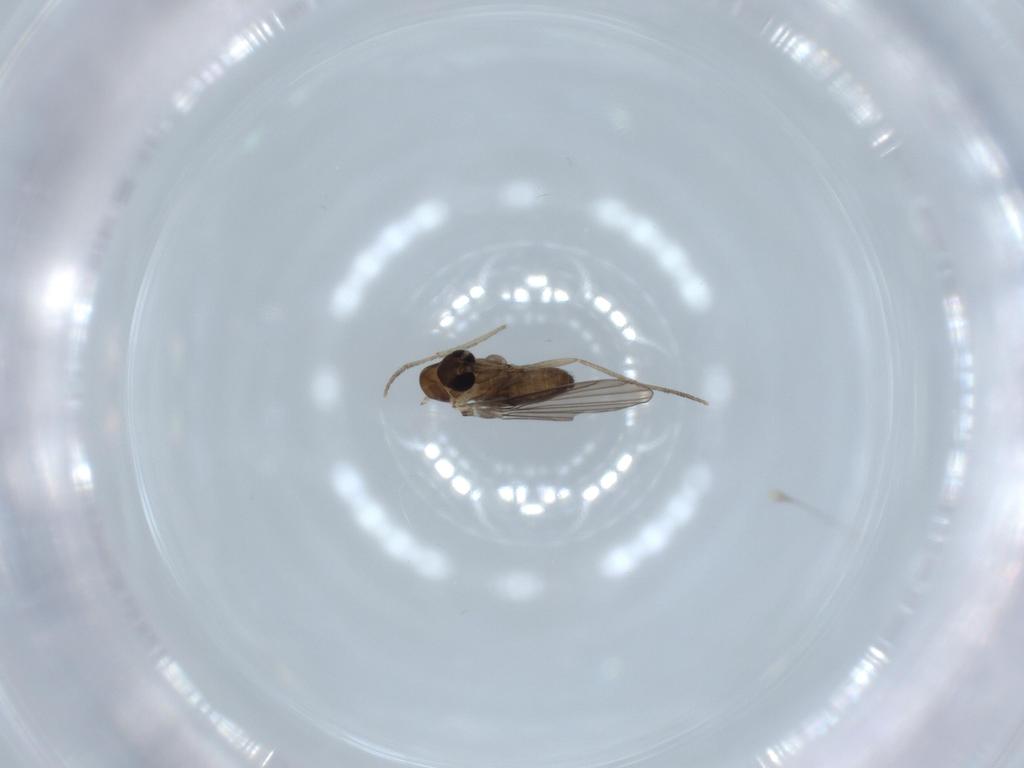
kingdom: Animalia
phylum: Arthropoda
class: Insecta
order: Diptera
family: Psychodidae
